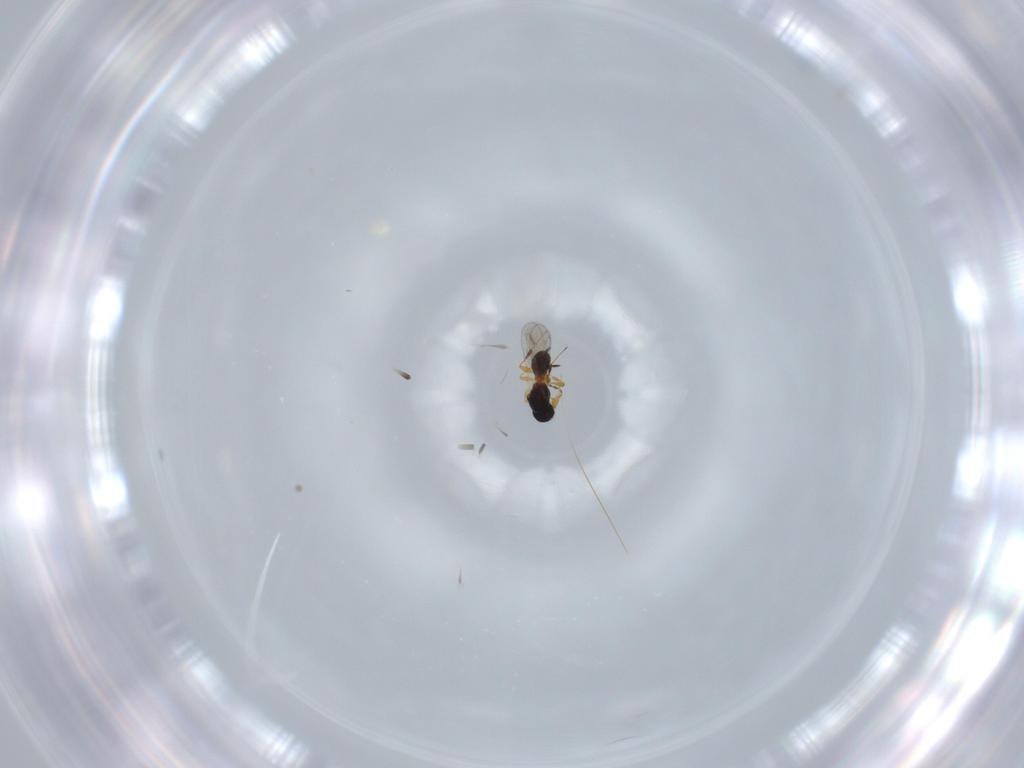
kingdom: Animalia
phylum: Arthropoda
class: Insecta
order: Hymenoptera
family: Platygastridae
